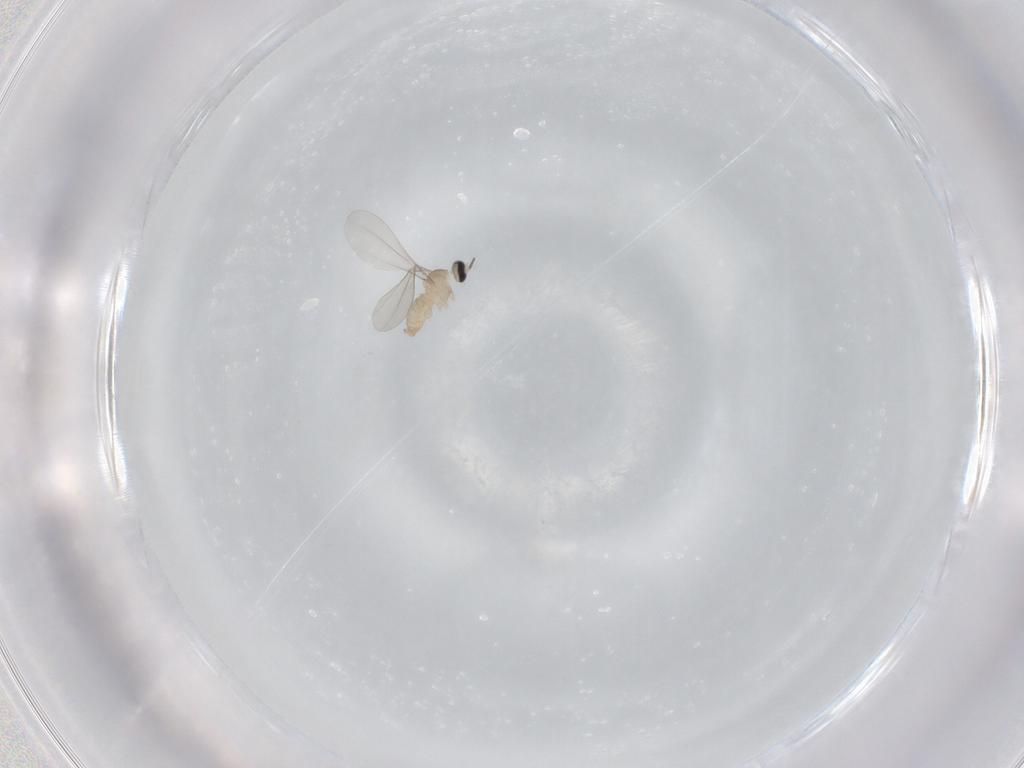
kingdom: Animalia
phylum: Arthropoda
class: Insecta
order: Diptera
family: Cecidomyiidae
